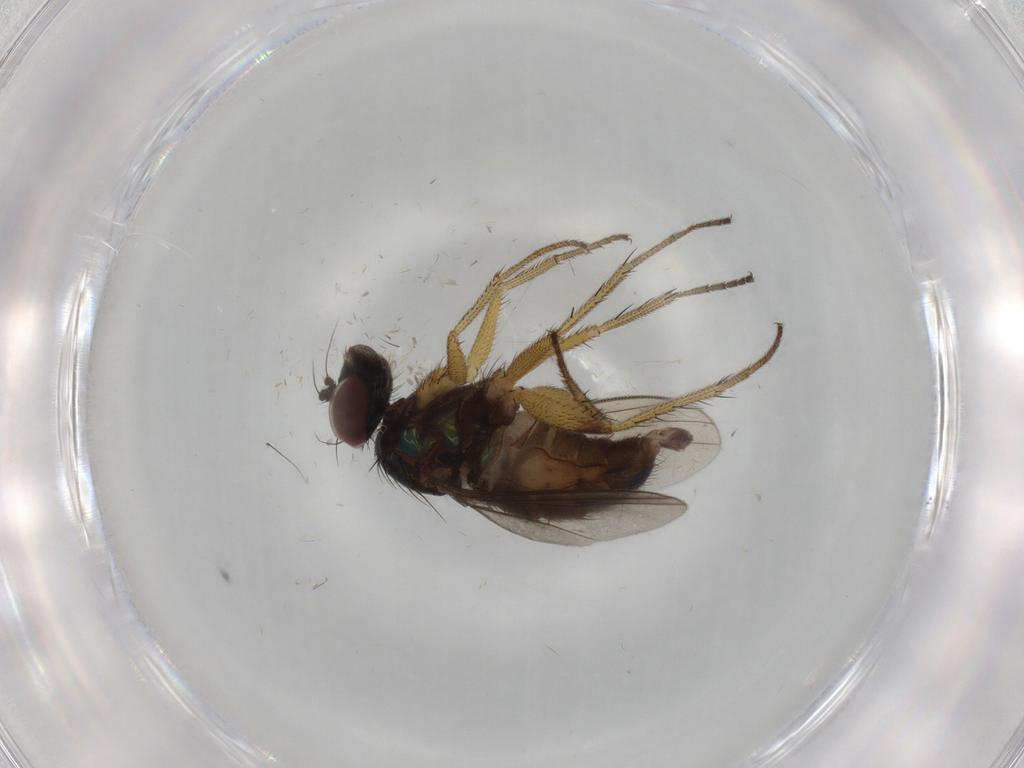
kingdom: Animalia
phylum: Arthropoda
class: Insecta
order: Diptera
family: Dolichopodidae
